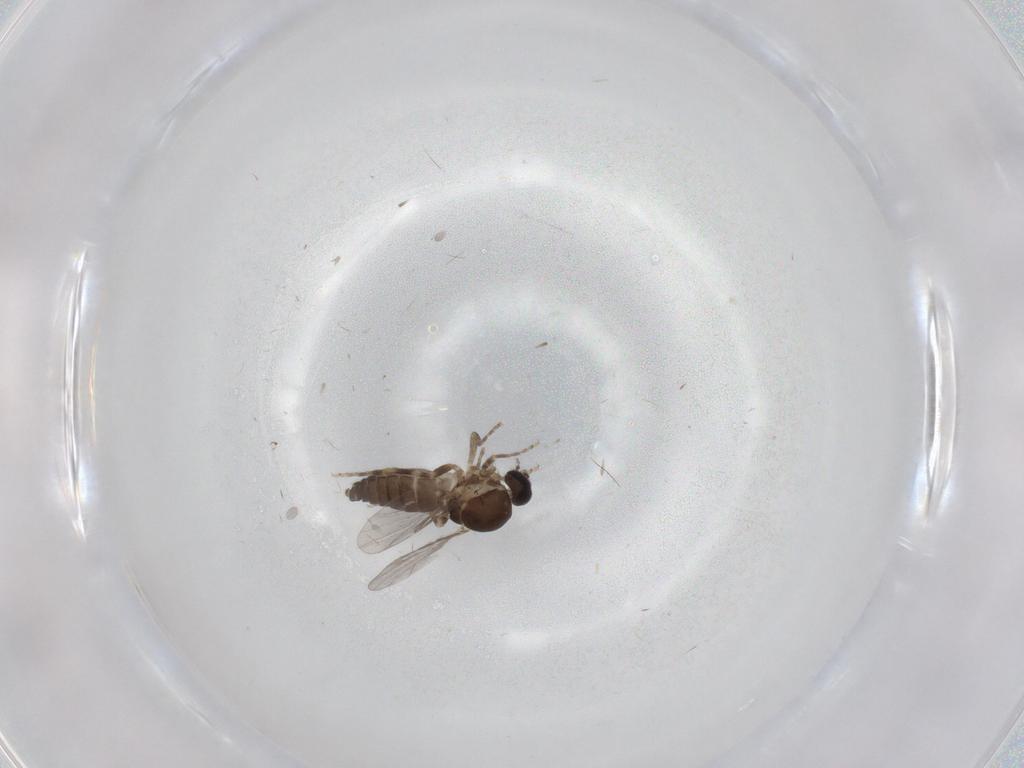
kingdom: Animalia
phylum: Arthropoda
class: Insecta
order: Diptera
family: Ceratopogonidae
